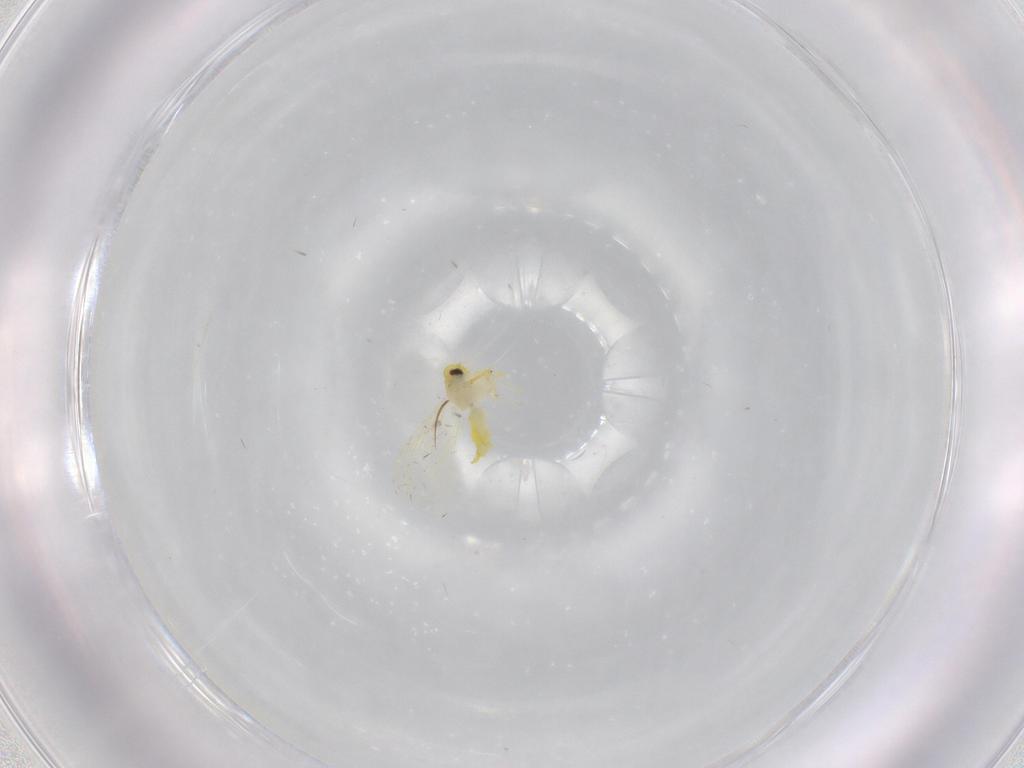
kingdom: Animalia
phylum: Arthropoda
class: Insecta
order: Hemiptera
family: Aleyrodidae
